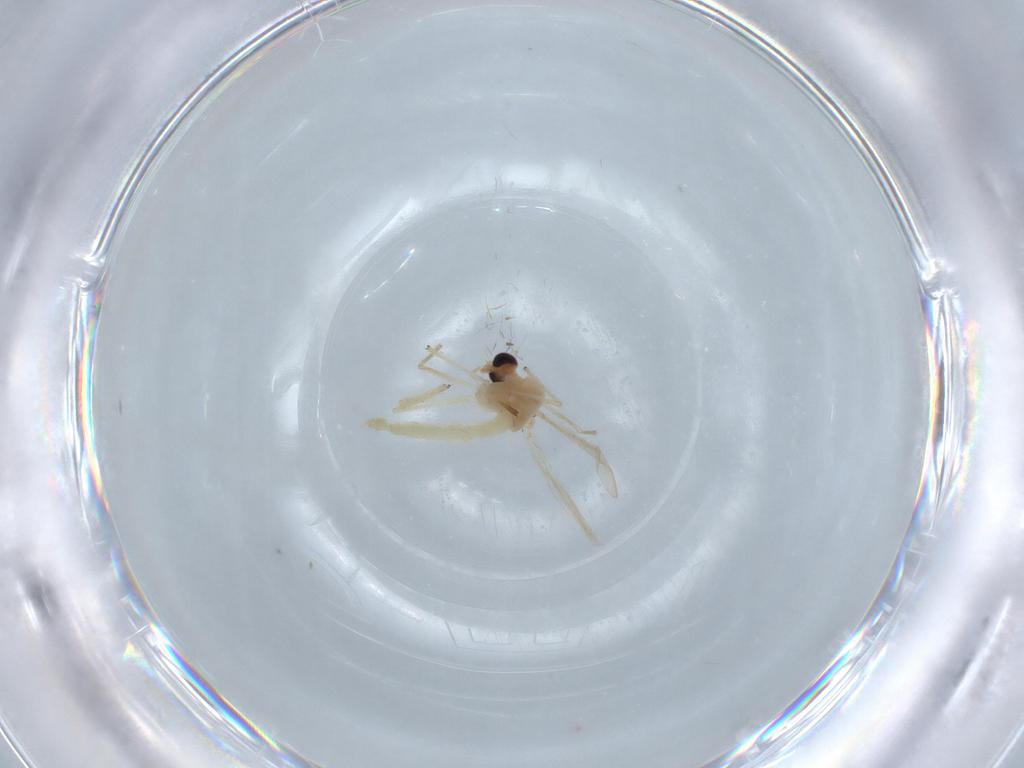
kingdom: Animalia
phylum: Arthropoda
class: Insecta
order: Diptera
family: Chironomidae
